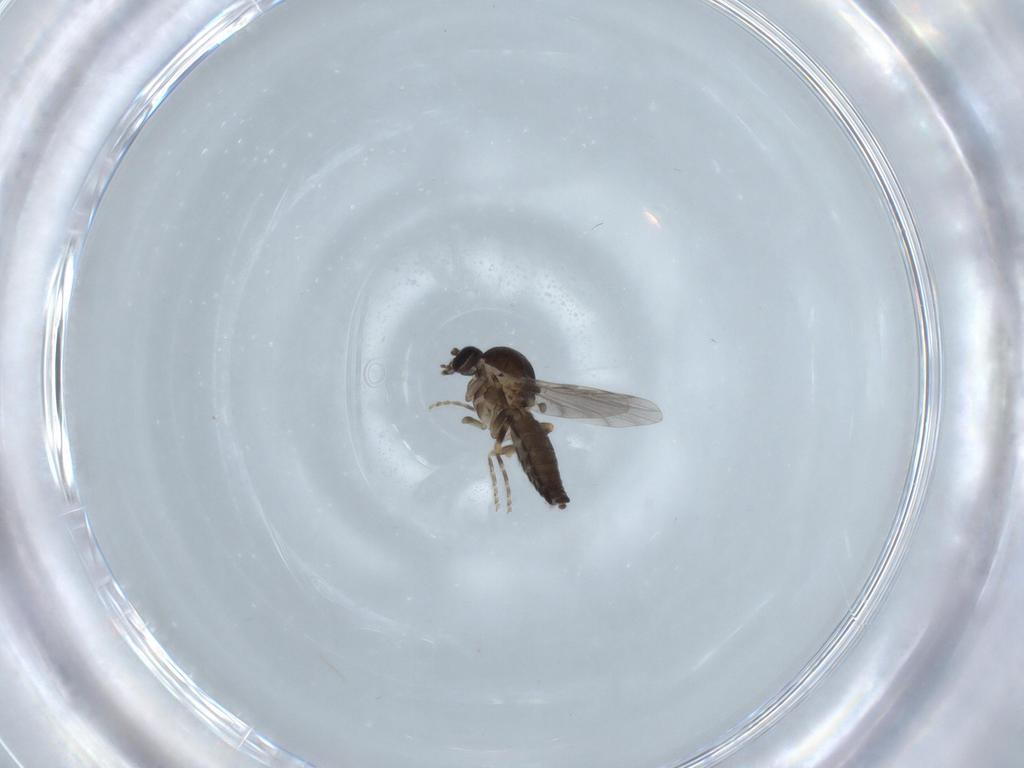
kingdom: Animalia
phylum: Arthropoda
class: Insecta
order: Diptera
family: Ceratopogonidae
